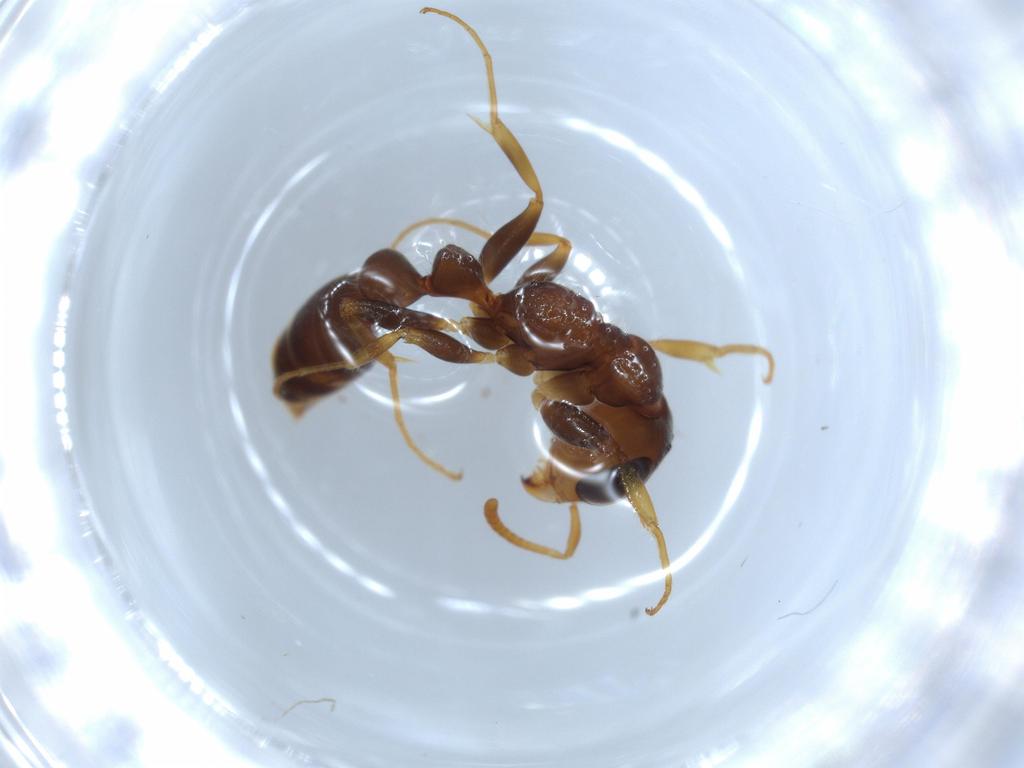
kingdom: Animalia
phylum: Arthropoda
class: Insecta
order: Hymenoptera
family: Formicidae
